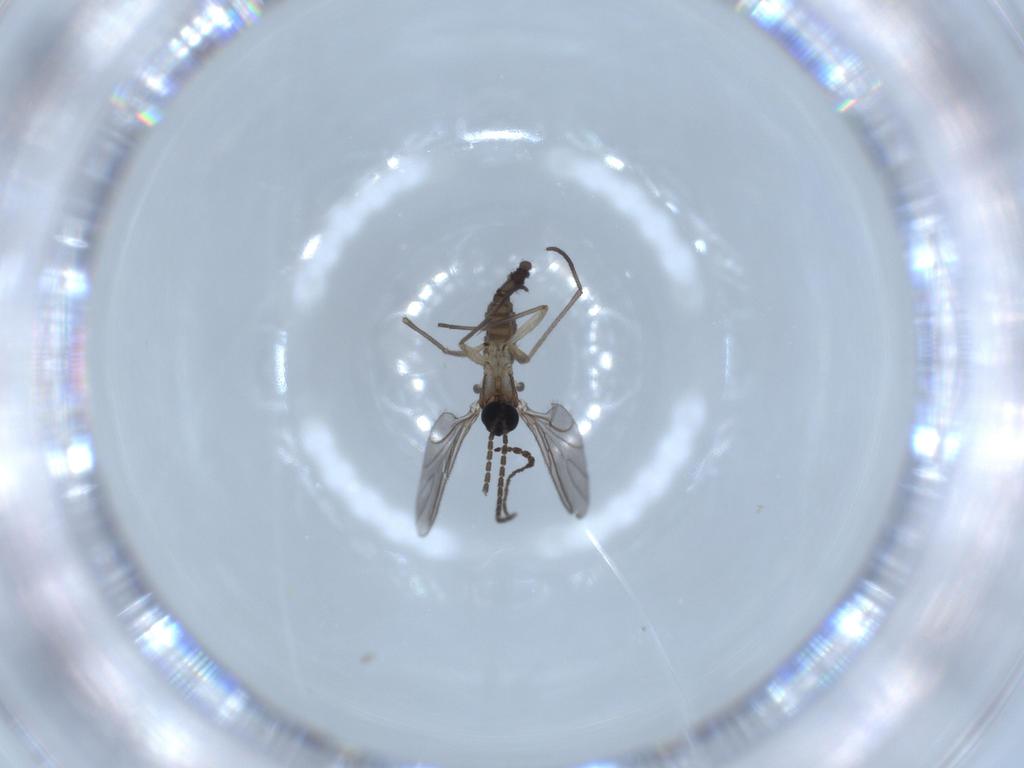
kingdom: Animalia
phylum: Arthropoda
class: Insecta
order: Diptera
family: Sciaridae
